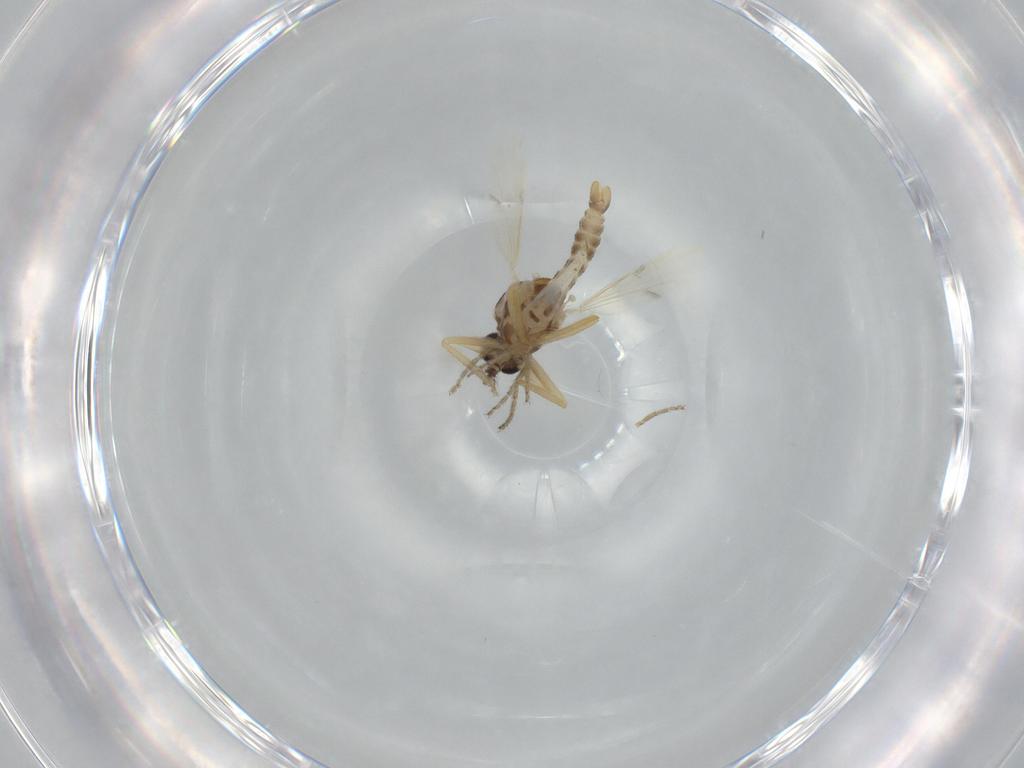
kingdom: Animalia
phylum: Arthropoda
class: Insecta
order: Diptera
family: Ceratopogonidae
